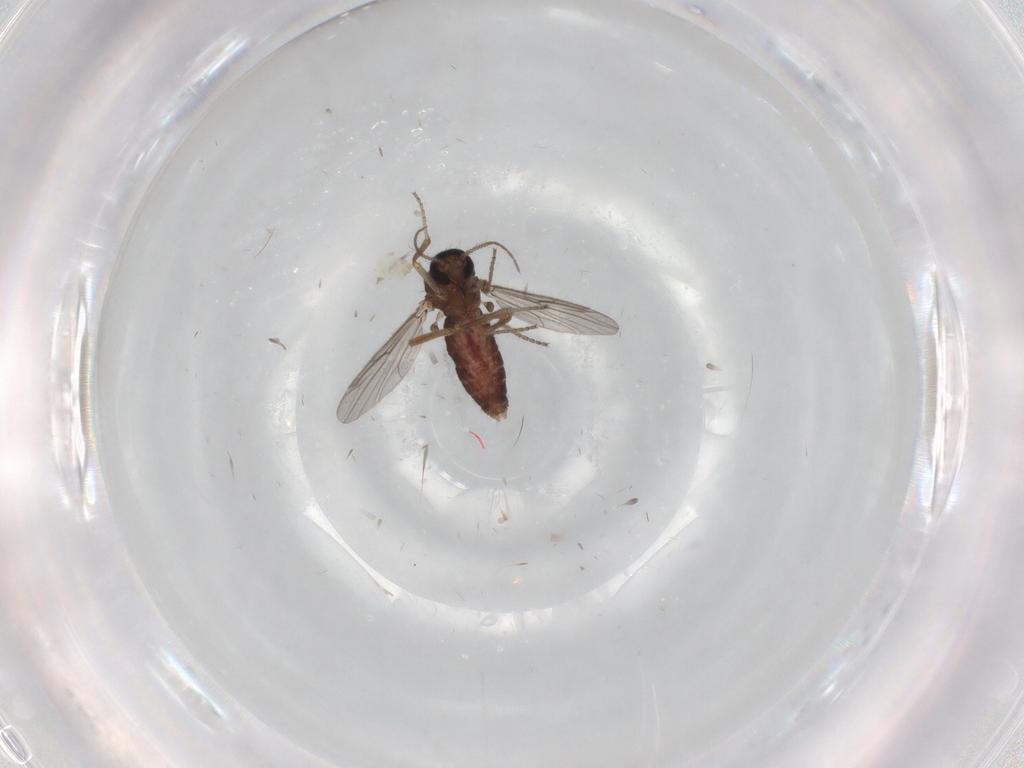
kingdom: Animalia
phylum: Arthropoda
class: Insecta
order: Diptera
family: Ceratopogonidae
